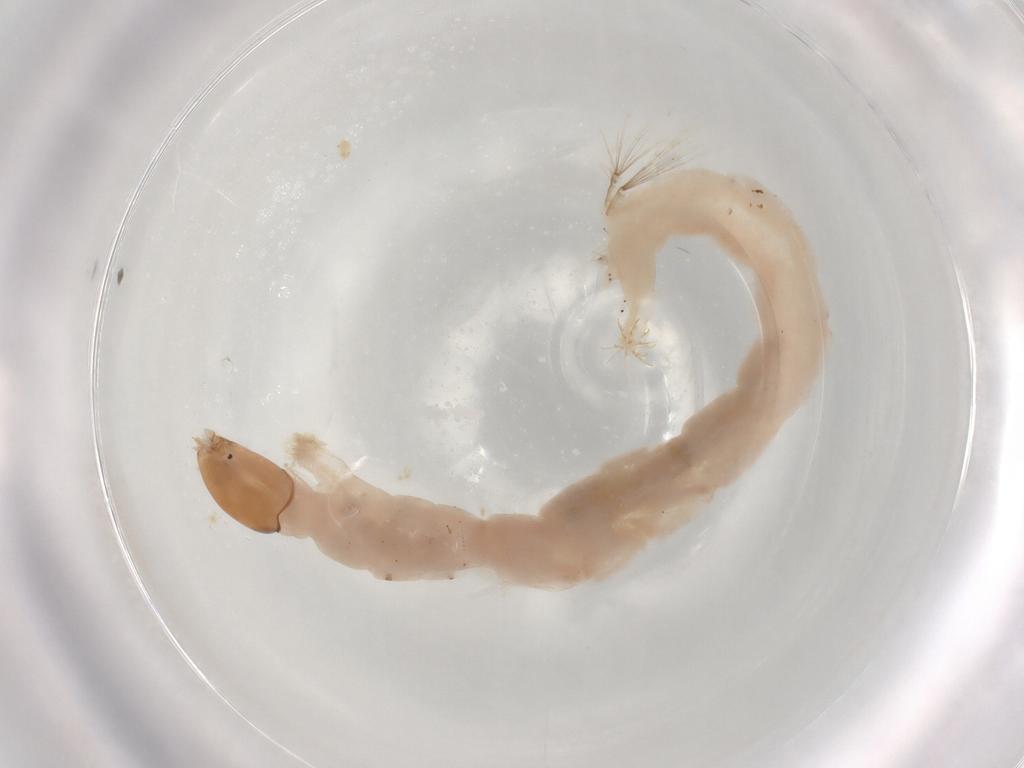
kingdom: Animalia
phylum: Arthropoda
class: Insecta
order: Diptera
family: Chironomidae
